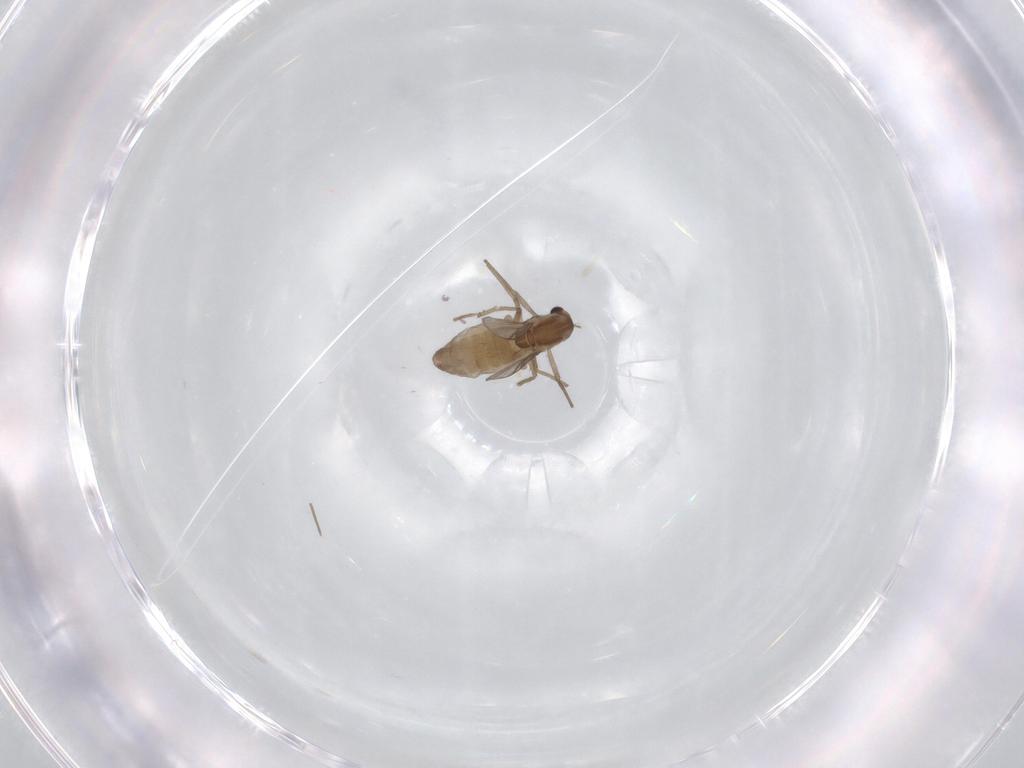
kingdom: Animalia
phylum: Arthropoda
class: Insecta
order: Diptera
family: Chironomidae
